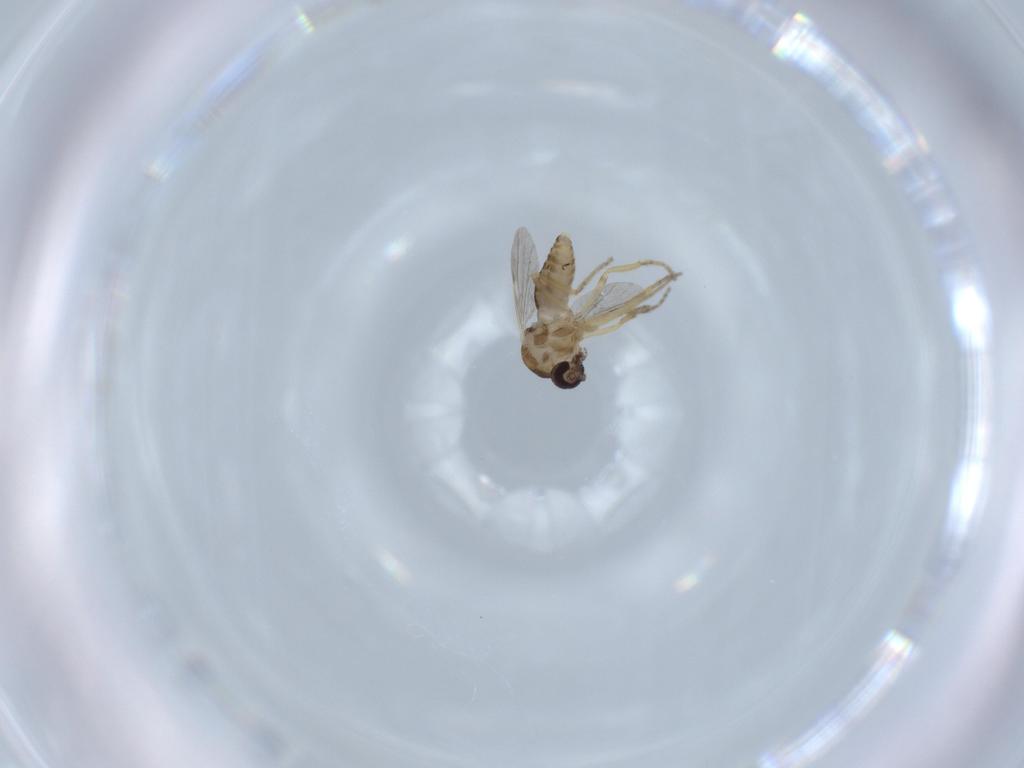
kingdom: Animalia
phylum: Arthropoda
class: Insecta
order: Diptera
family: Ceratopogonidae
